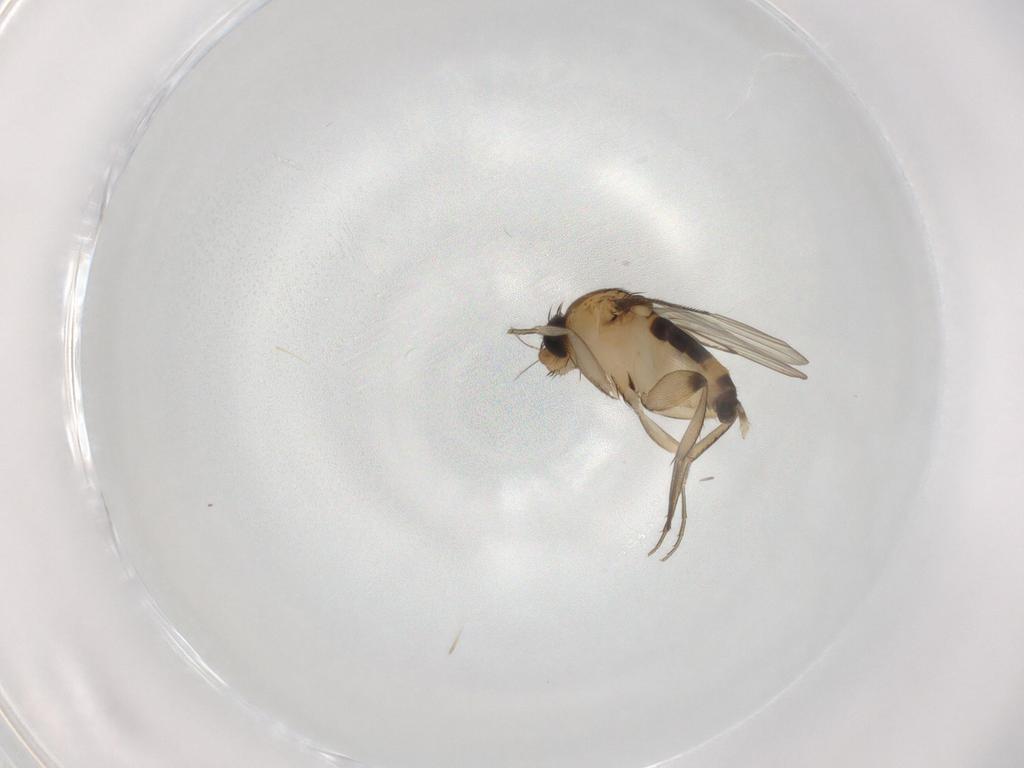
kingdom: Animalia
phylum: Arthropoda
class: Insecta
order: Diptera
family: Phoridae
